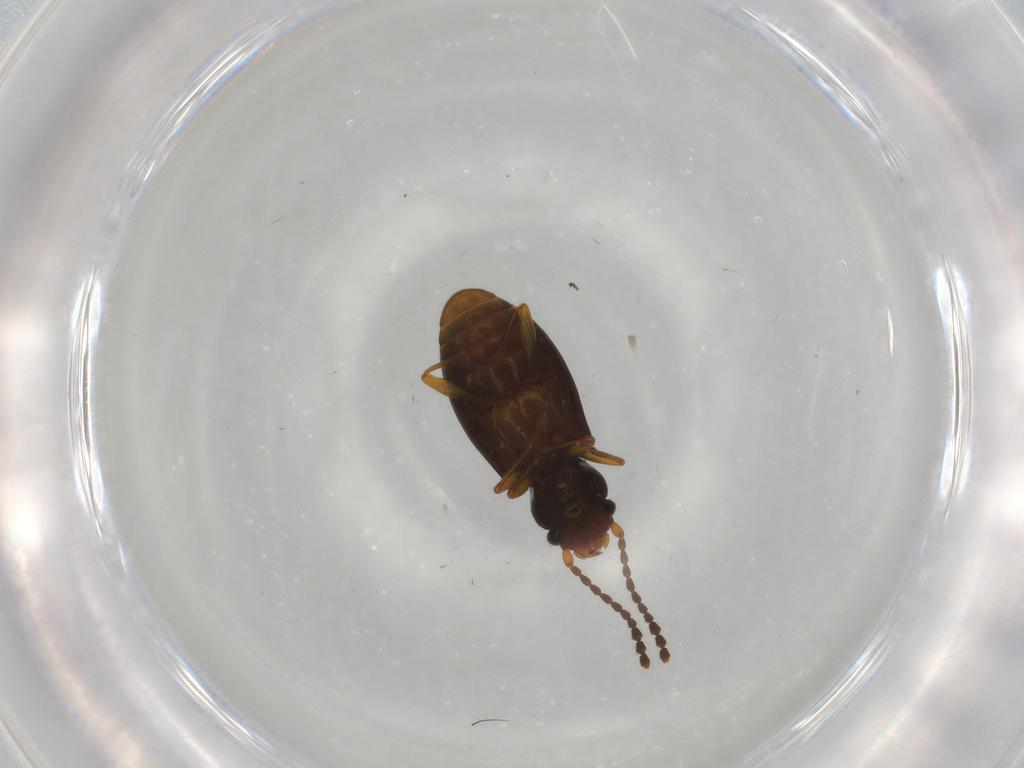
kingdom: Animalia
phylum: Arthropoda
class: Insecta
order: Coleoptera
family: Laemophloeidae
